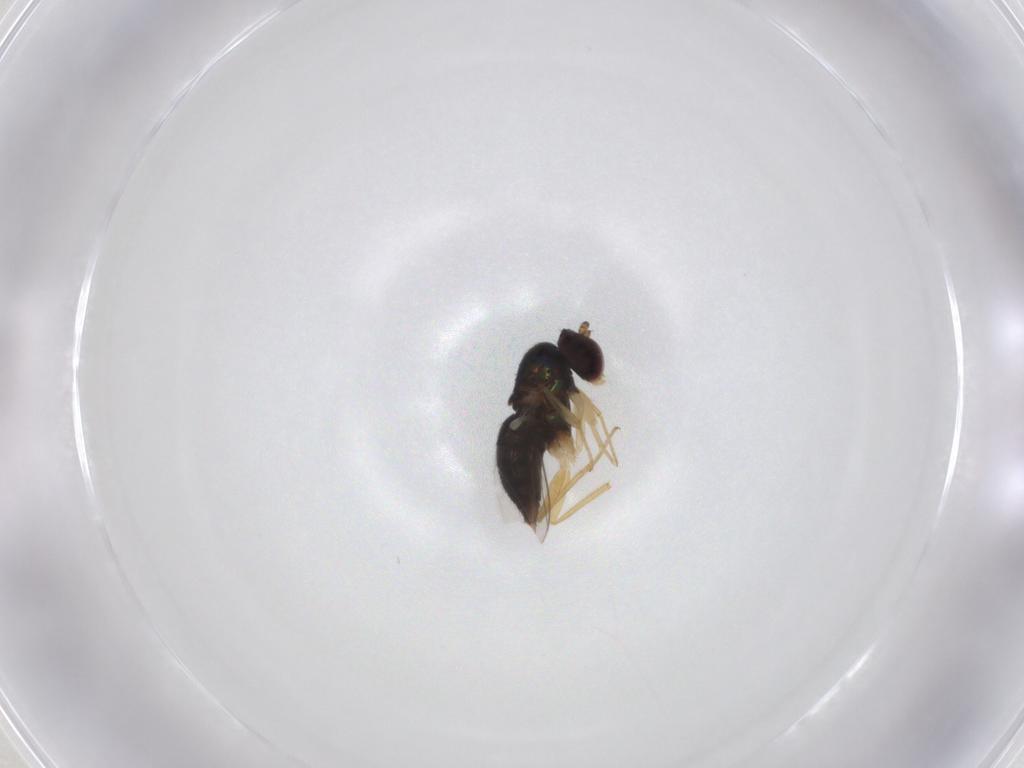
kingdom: Animalia
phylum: Arthropoda
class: Insecta
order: Diptera
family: Dolichopodidae
